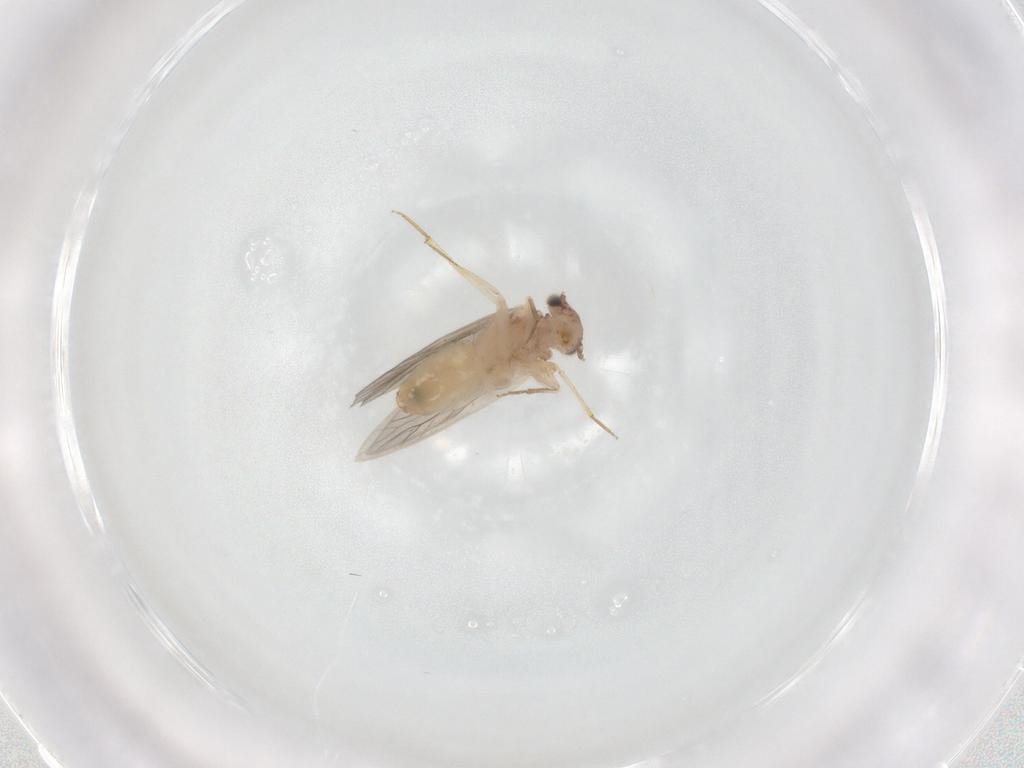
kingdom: Animalia
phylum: Arthropoda
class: Insecta
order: Psocodea
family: Lepidopsocidae
